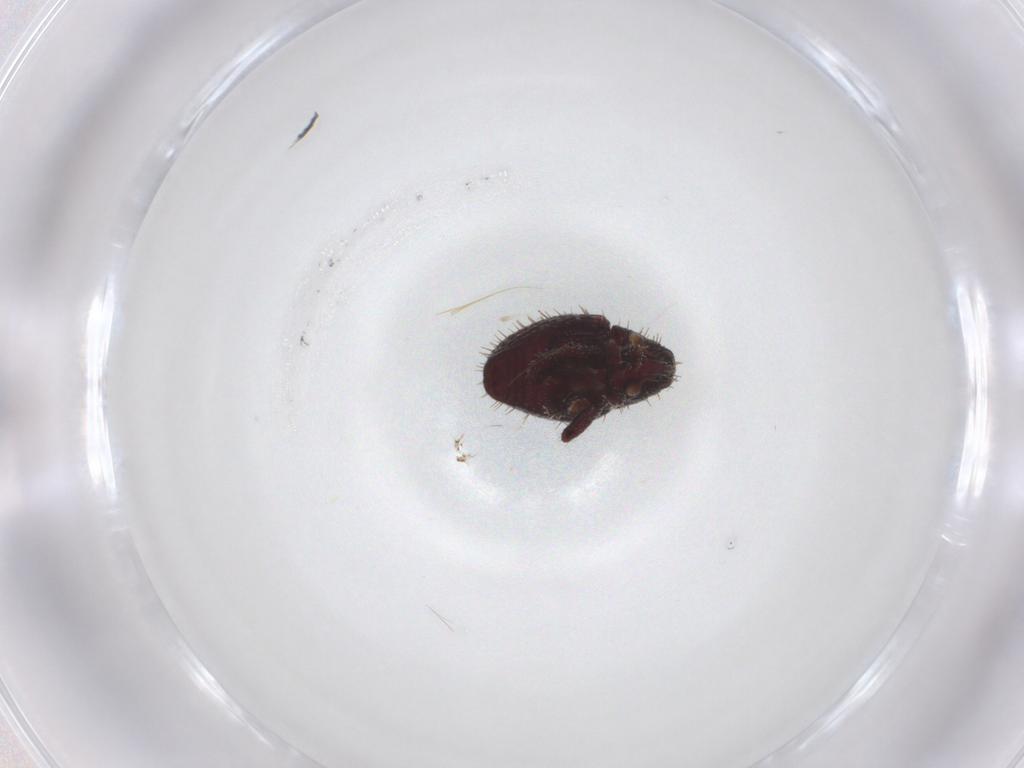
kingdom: Animalia
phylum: Arthropoda
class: Insecta
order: Coleoptera
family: Curculionidae
